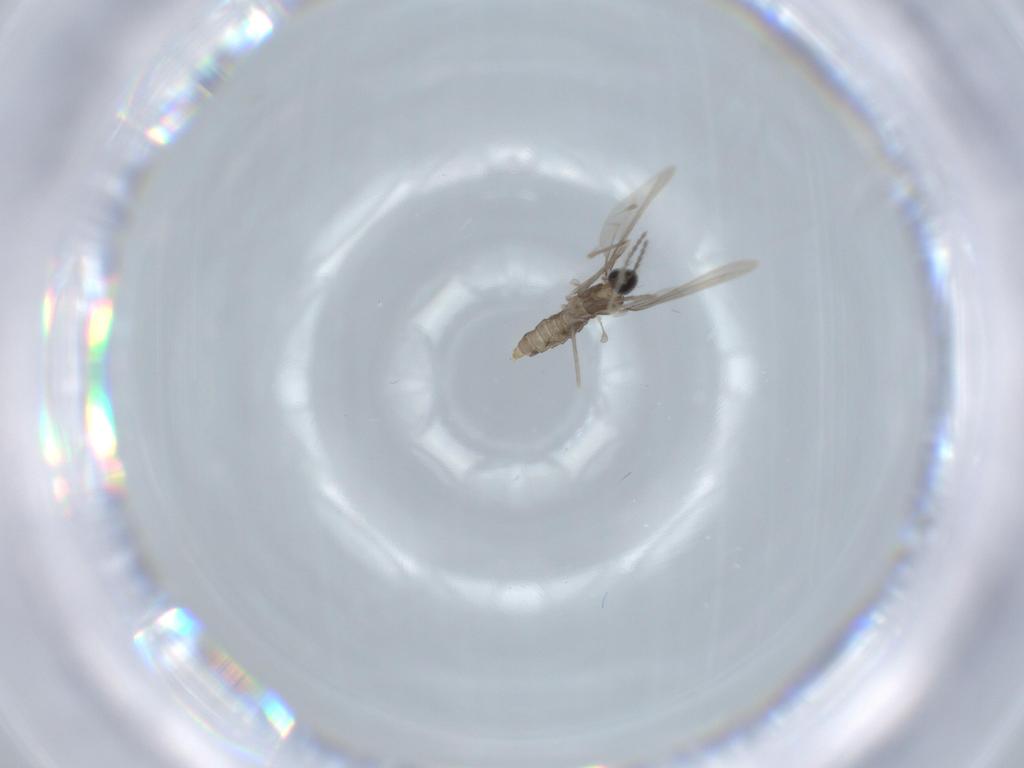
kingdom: Animalia
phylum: Arthropoda
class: Insecta
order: Diptera
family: Cecidomyiidae
